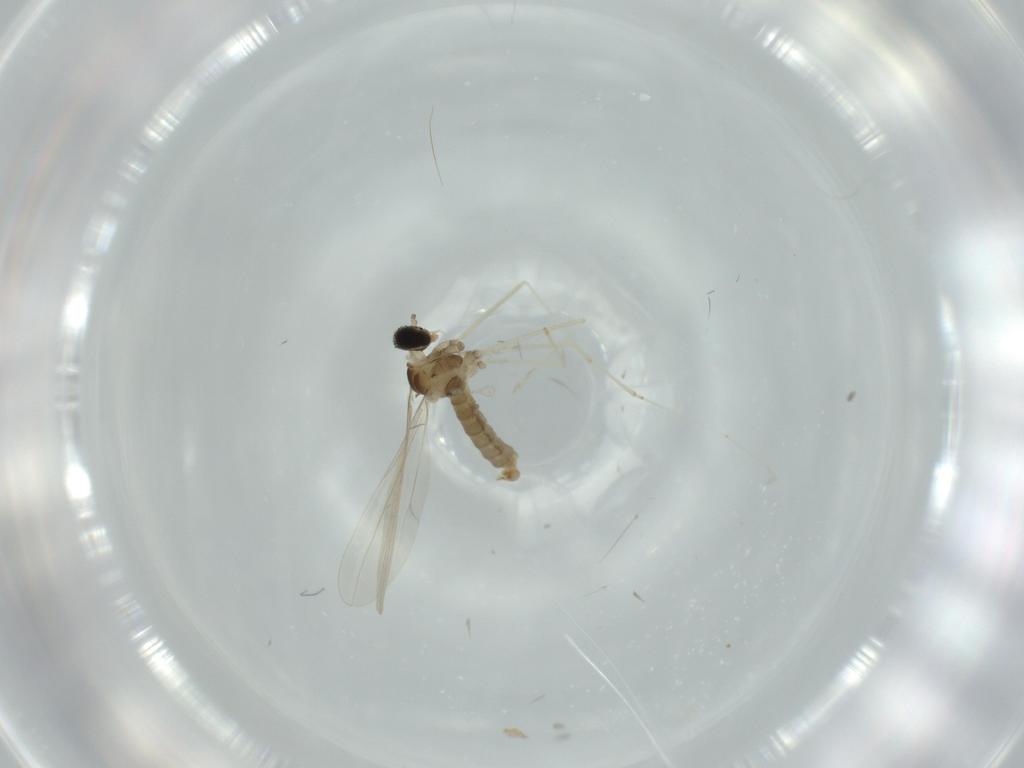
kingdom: Animalia
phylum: Arthropoda
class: Insecta
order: Diptera
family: Cecidomyiidae
